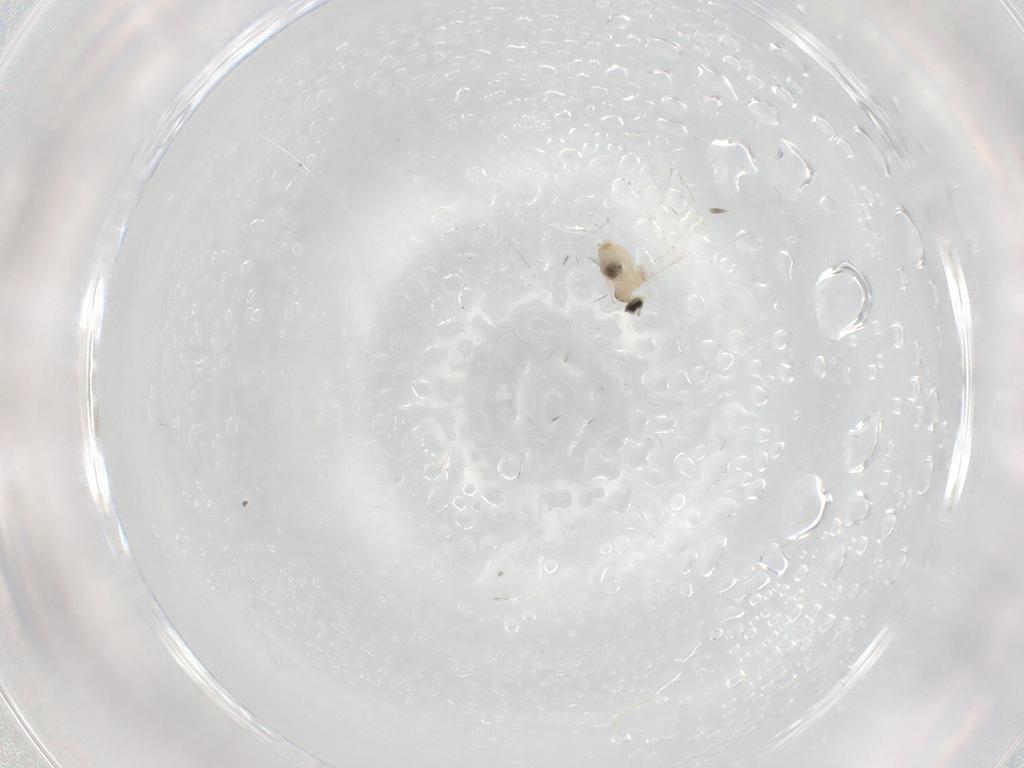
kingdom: Animalia
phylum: Arthropoda
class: Insecta
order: Diptera
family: Cecidomyiidae
